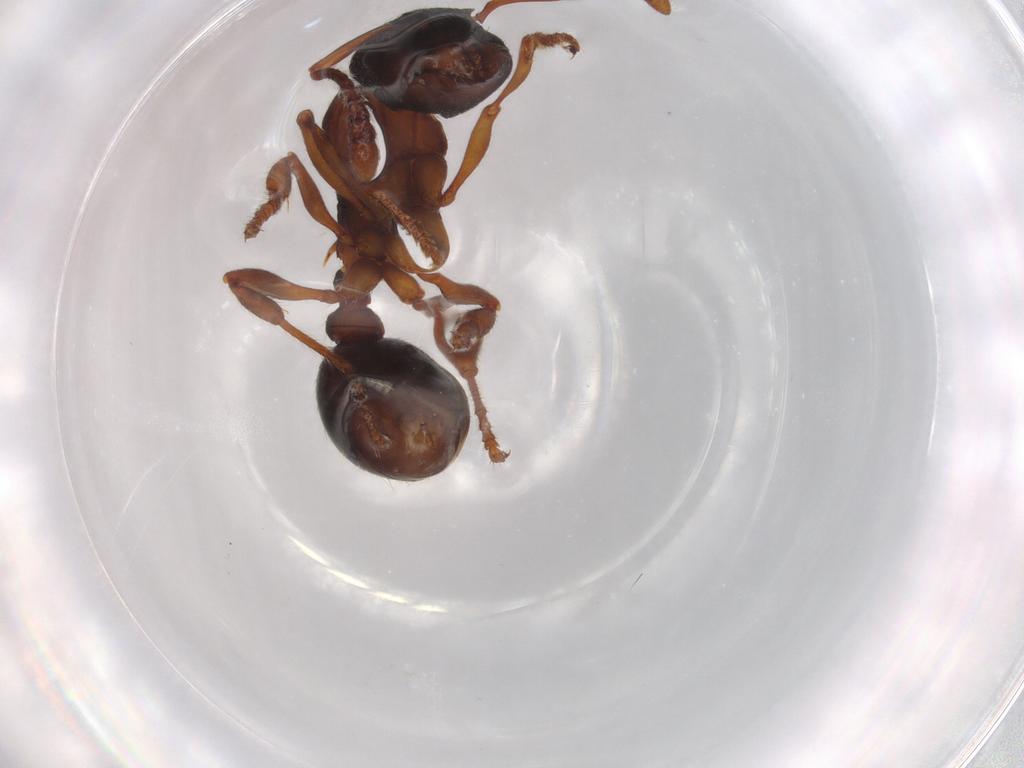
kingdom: Animalia
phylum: Arthropoda
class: Insecta
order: Hymenoptera
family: Formicidae
